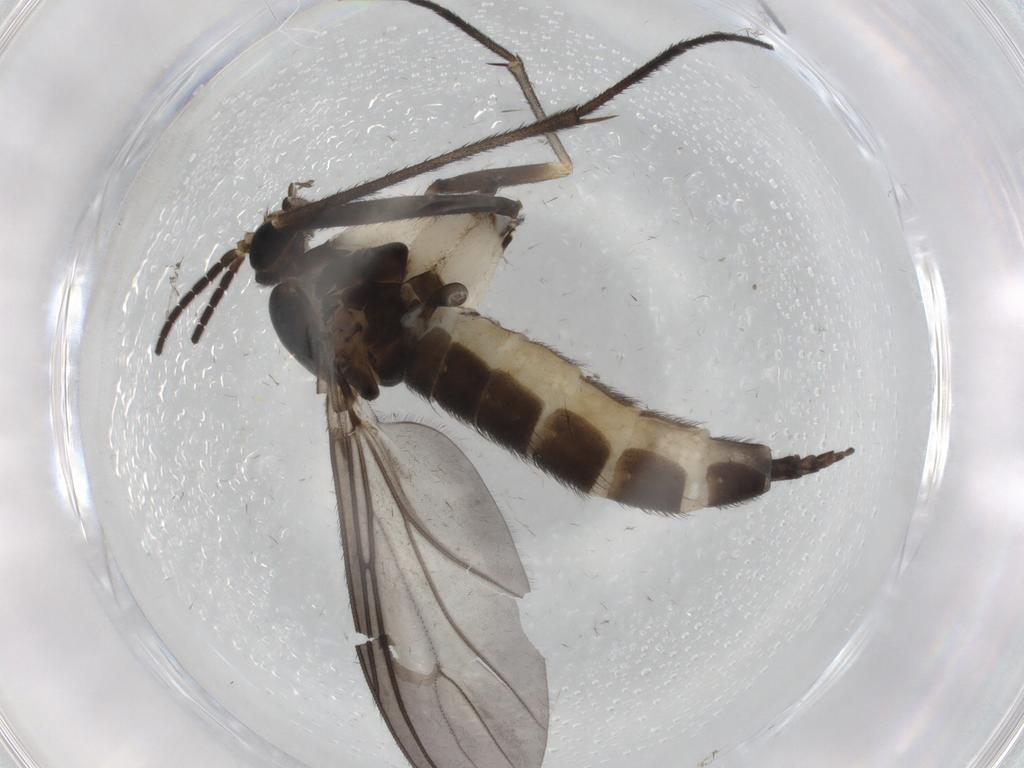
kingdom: Animalia
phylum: Arthropoda
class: Insecta
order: Diptera
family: Sciaridae
